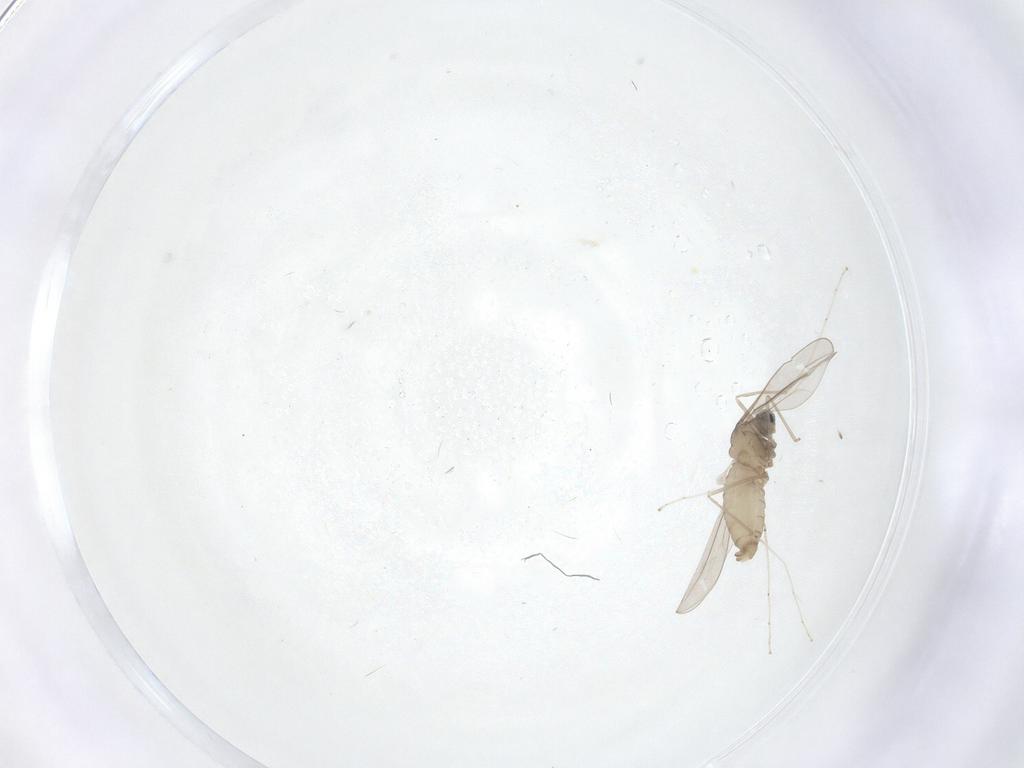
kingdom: Animalia
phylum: Arthropoda
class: Insecta
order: Diptera
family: Cecidomyiidae
